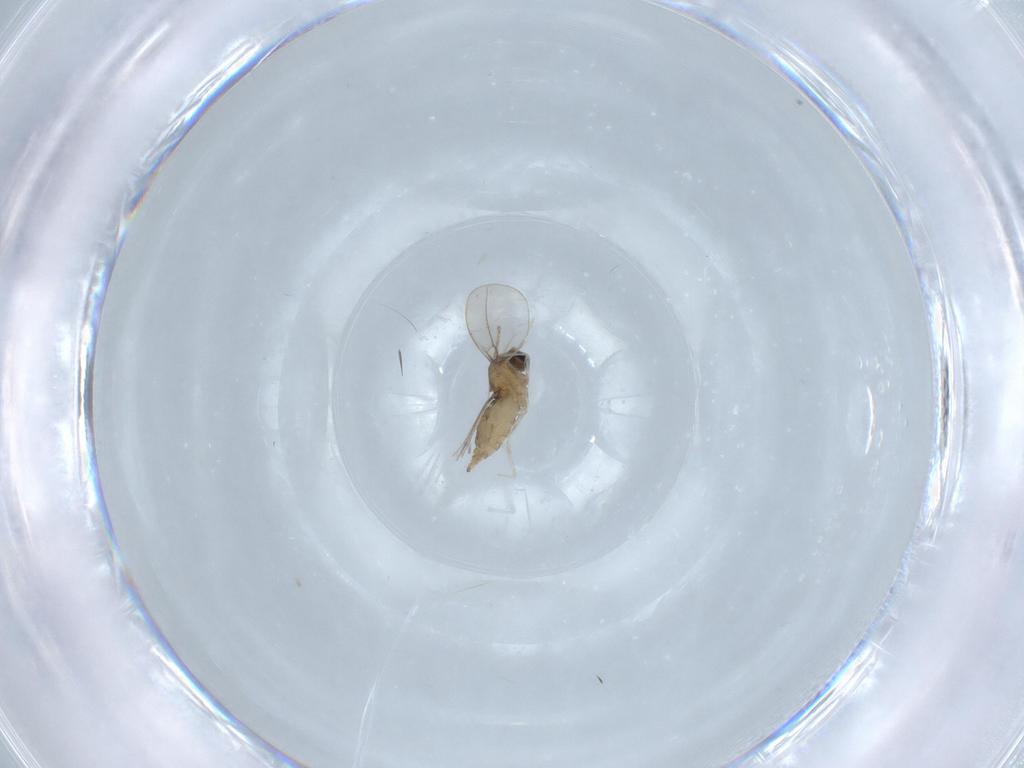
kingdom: Animalia
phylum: Arthropoda
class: Insecta
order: Diptera
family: Cecidomyiidae
